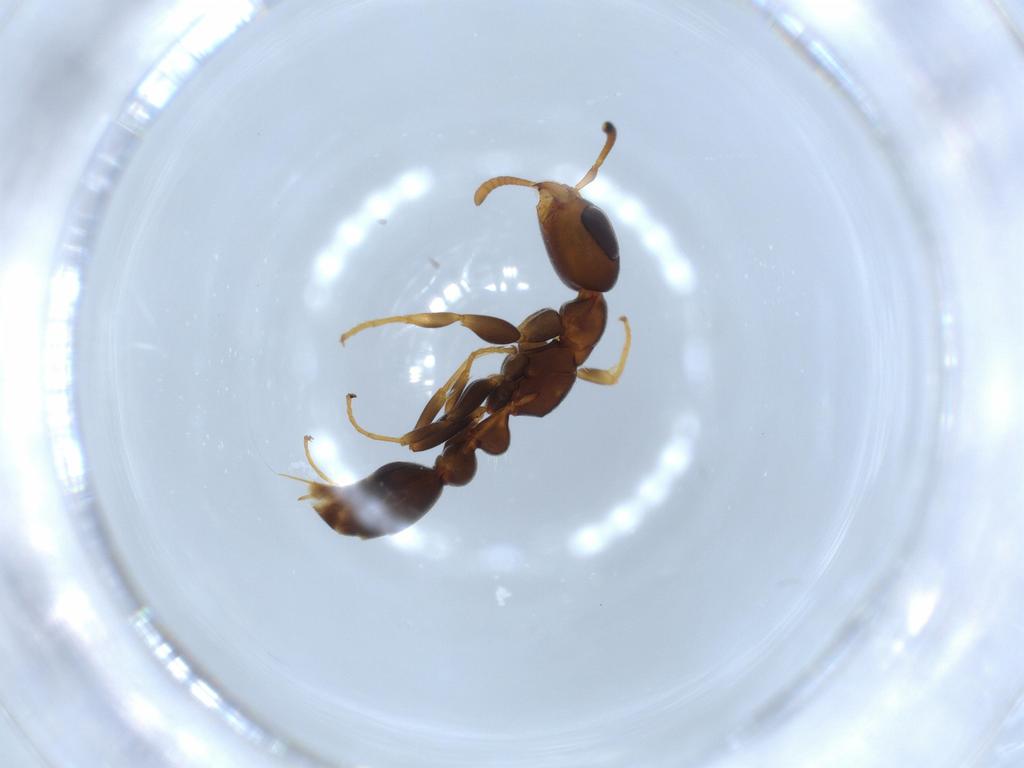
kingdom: Animalia
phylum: Arthropoda
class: Insecta
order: Hymenoptera
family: Formicidae
